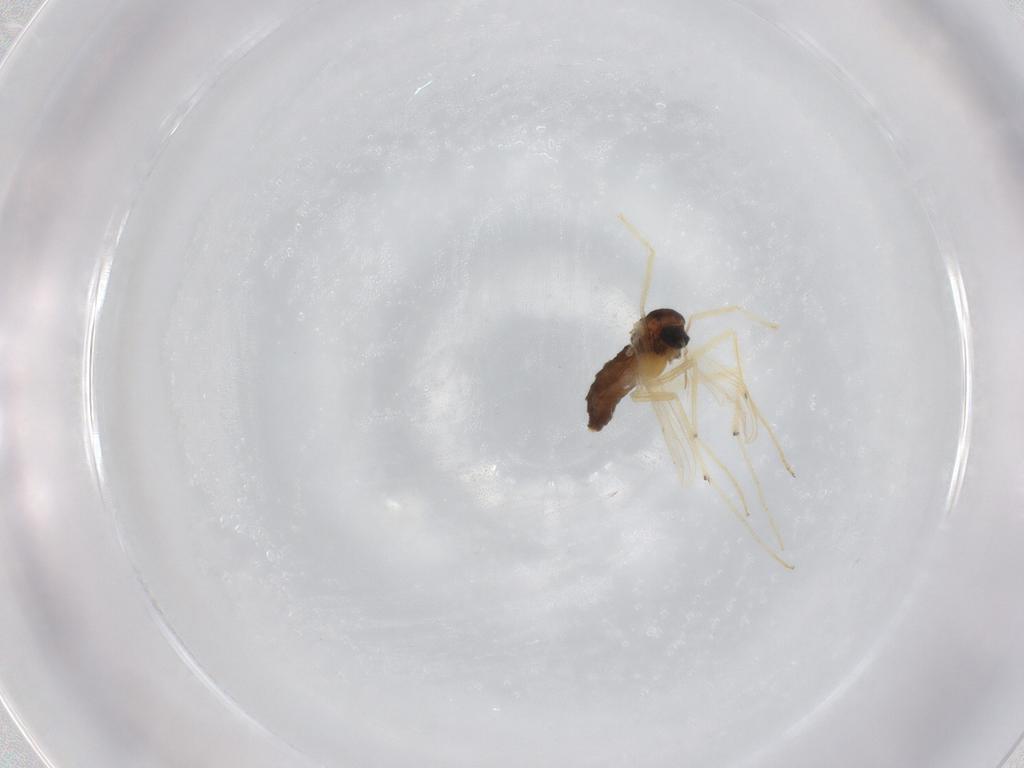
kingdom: Animalia
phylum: Arthropoda
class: Insecta
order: Diptera
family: Chironomidae
